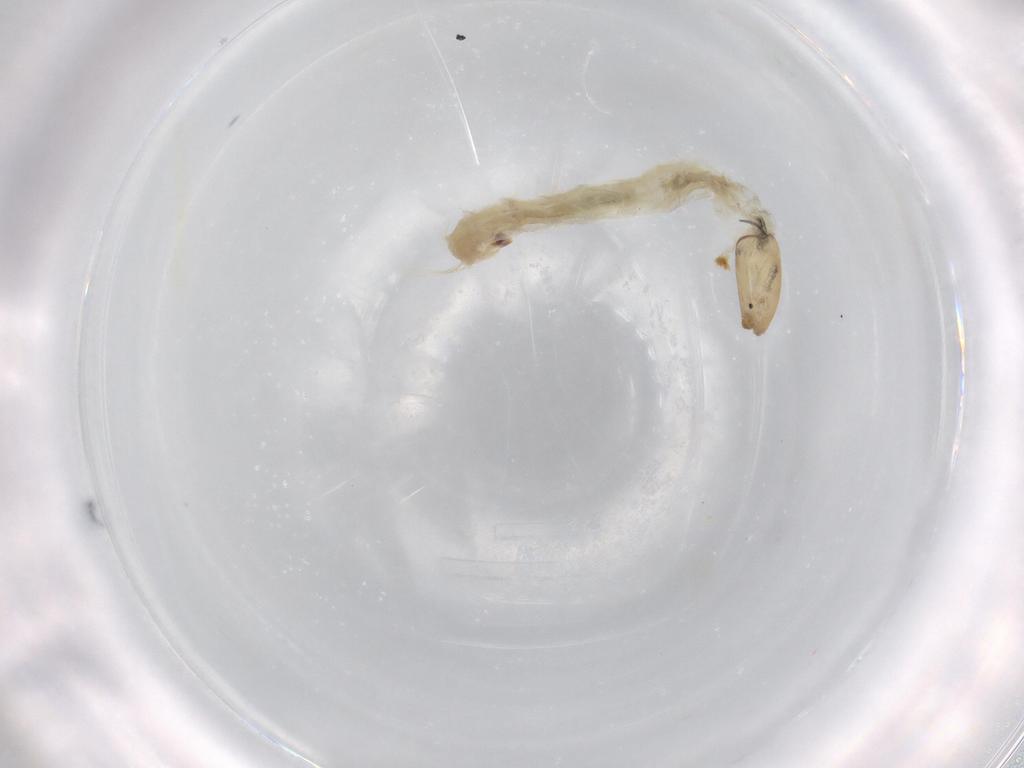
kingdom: Animalia
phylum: Arthropoda
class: Insecta
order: Diptera
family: Chironomidae
